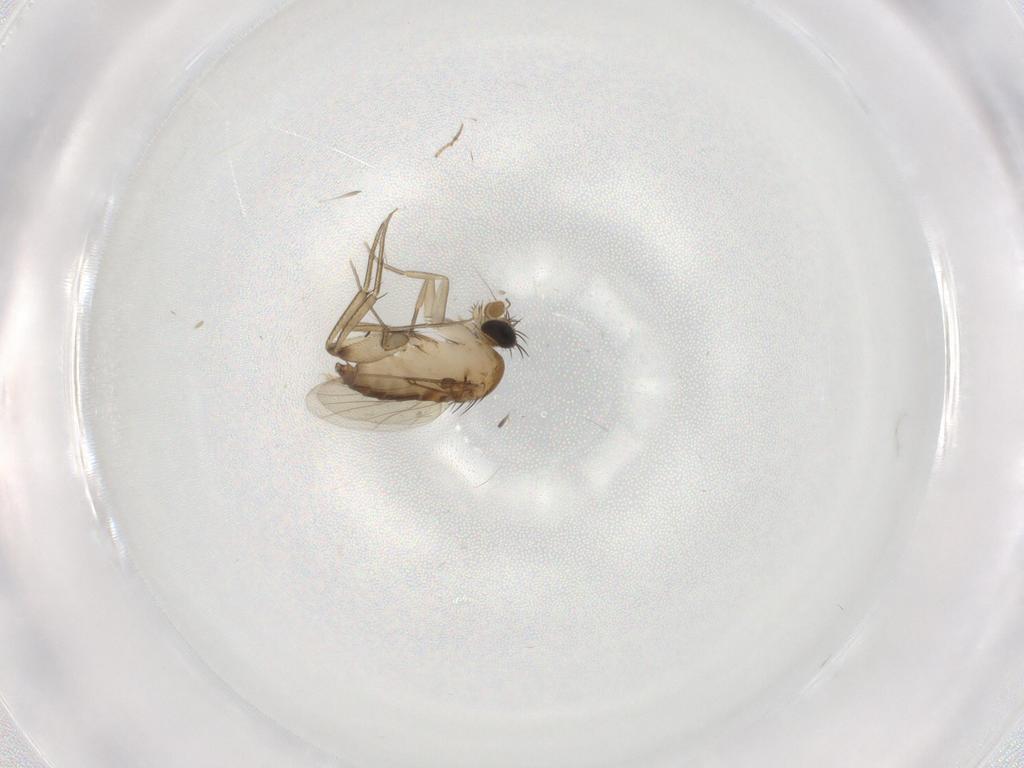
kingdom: Animalia
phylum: Arthropoda
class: Insecta
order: Diptera
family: Phoridae
